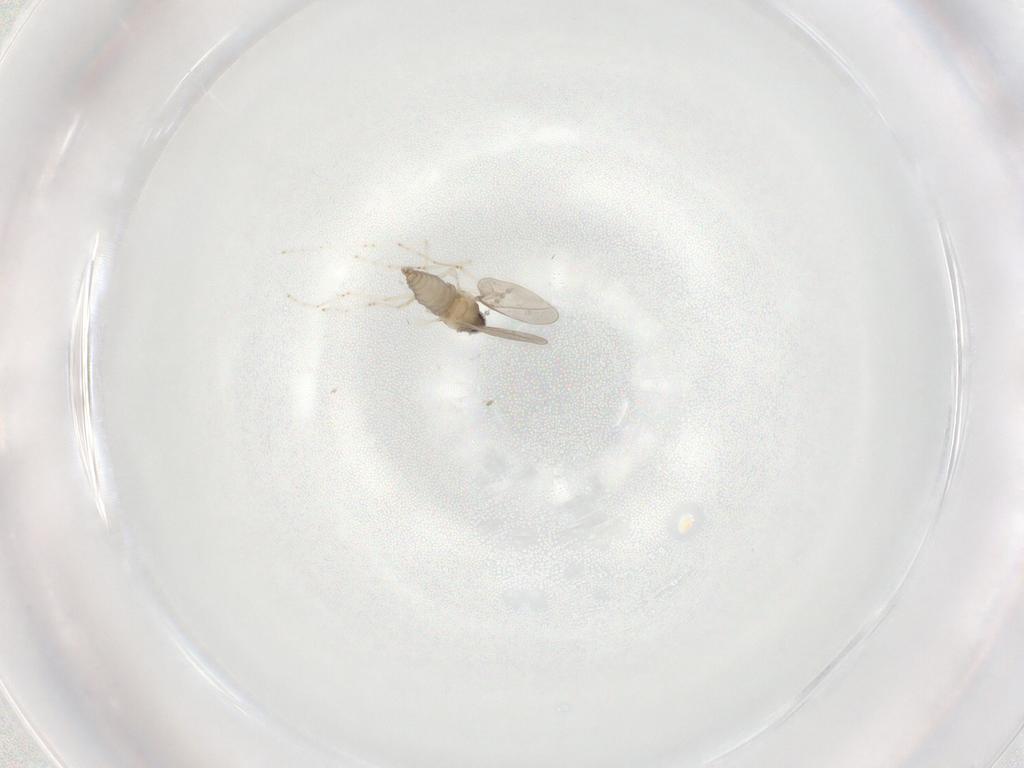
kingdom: Animalia
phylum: Arthropoda
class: Insecta
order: Diptera
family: Cecidomyiidae
